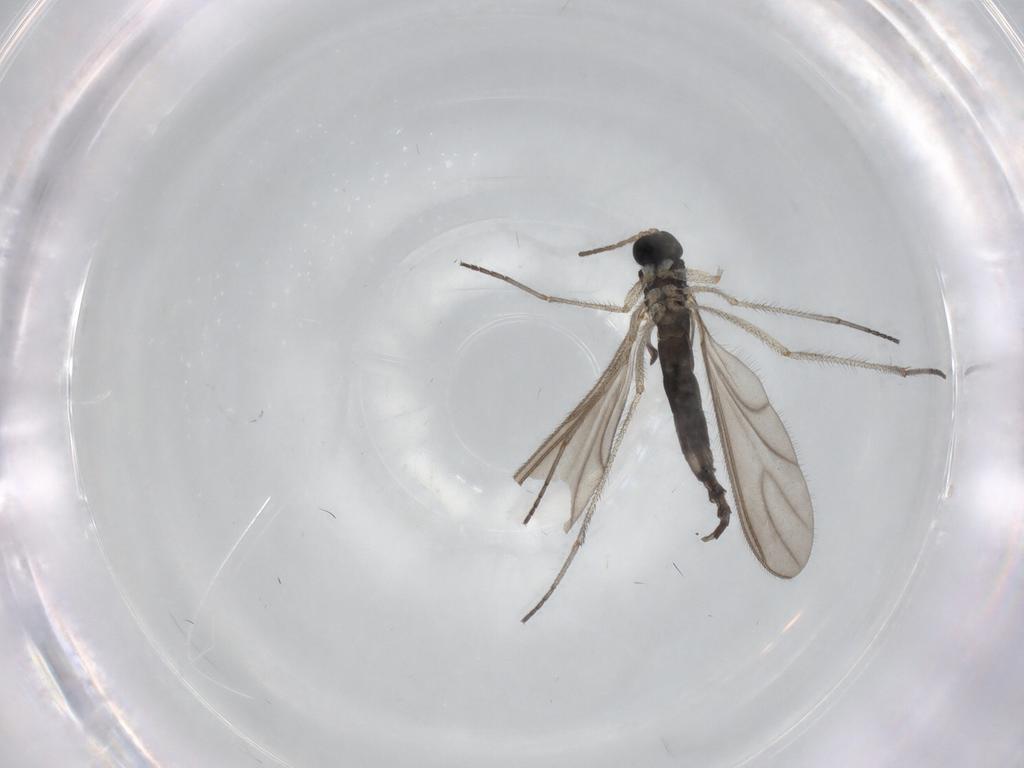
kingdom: Animalia
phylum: Arthropoda
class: Insecta
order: Diptera
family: Sciaridae
